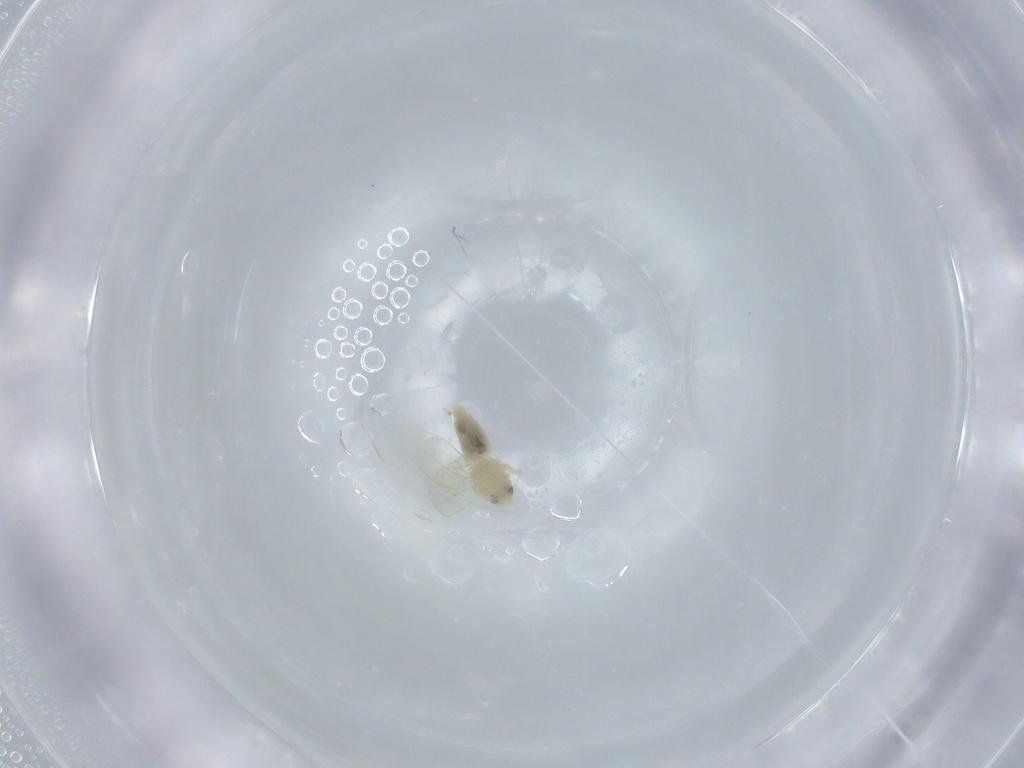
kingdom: Animalia
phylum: Arthropoda
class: Insecta
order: Hemiptera
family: Aleyrodidae
